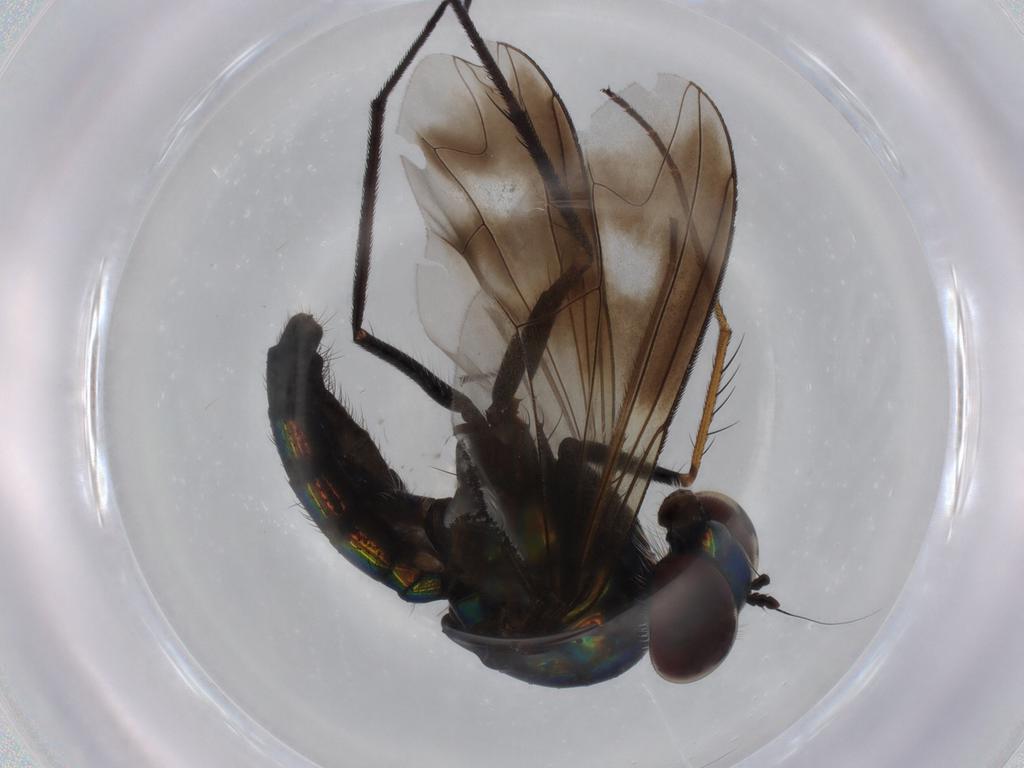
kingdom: Animalia
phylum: Arthropoda
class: Insecta
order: Diptera
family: Dolichopodidae
